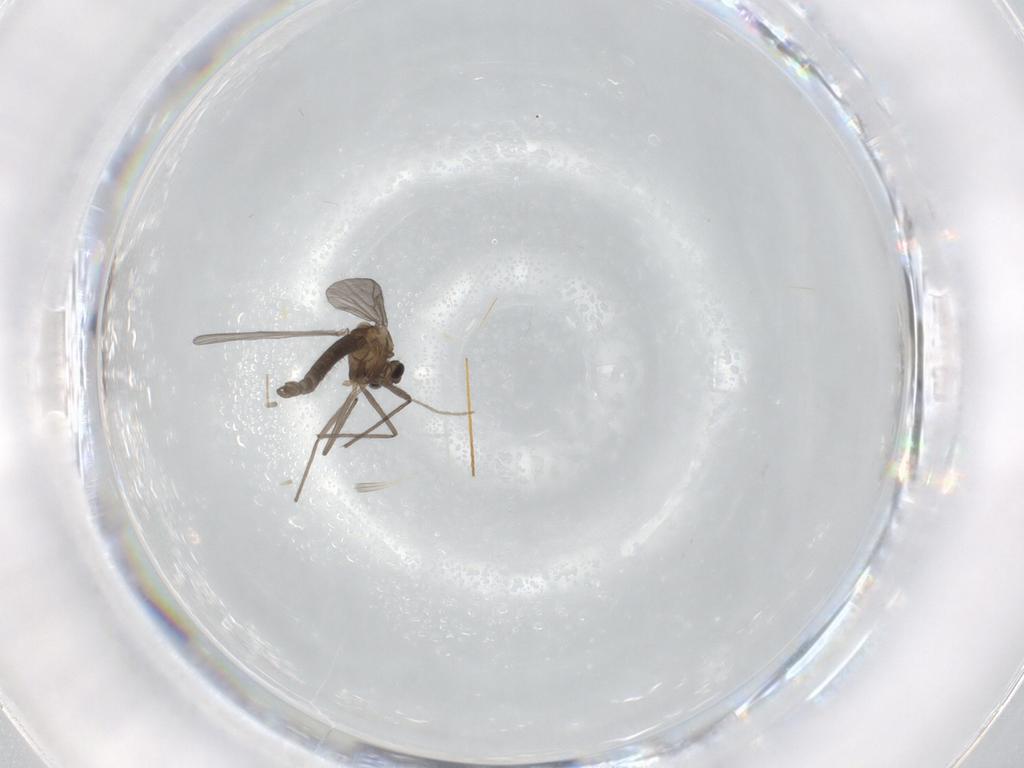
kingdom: Animalia
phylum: Arthropoda
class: Insecta
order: Diptera
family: Chironomidae
